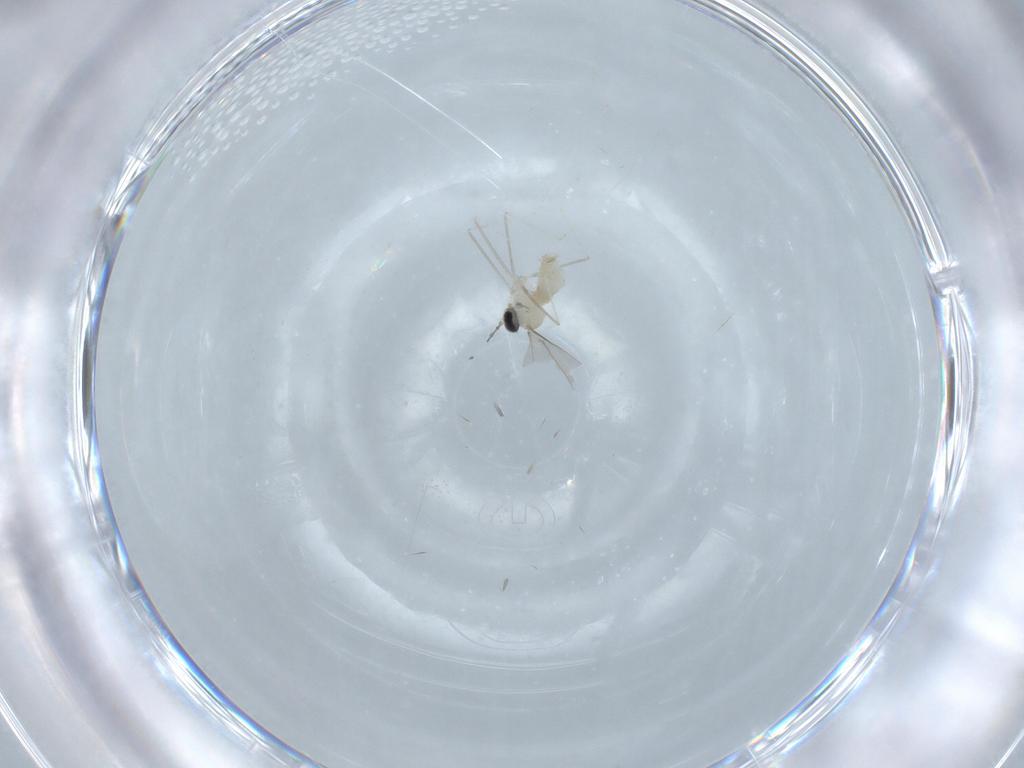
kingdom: Animalia
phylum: Arthropoda
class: Insecta
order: Diptera
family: Cecidomyiidae
